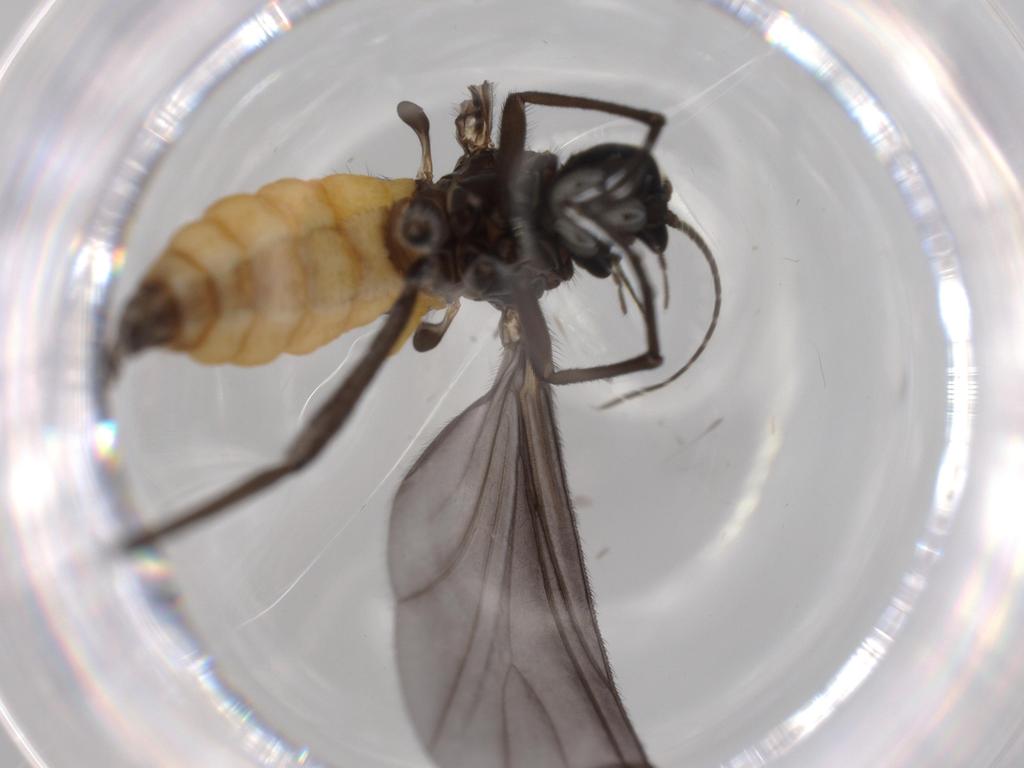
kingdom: Animalia
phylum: Arthropoda
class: Insecta
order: Diptera
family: Sciaridae
